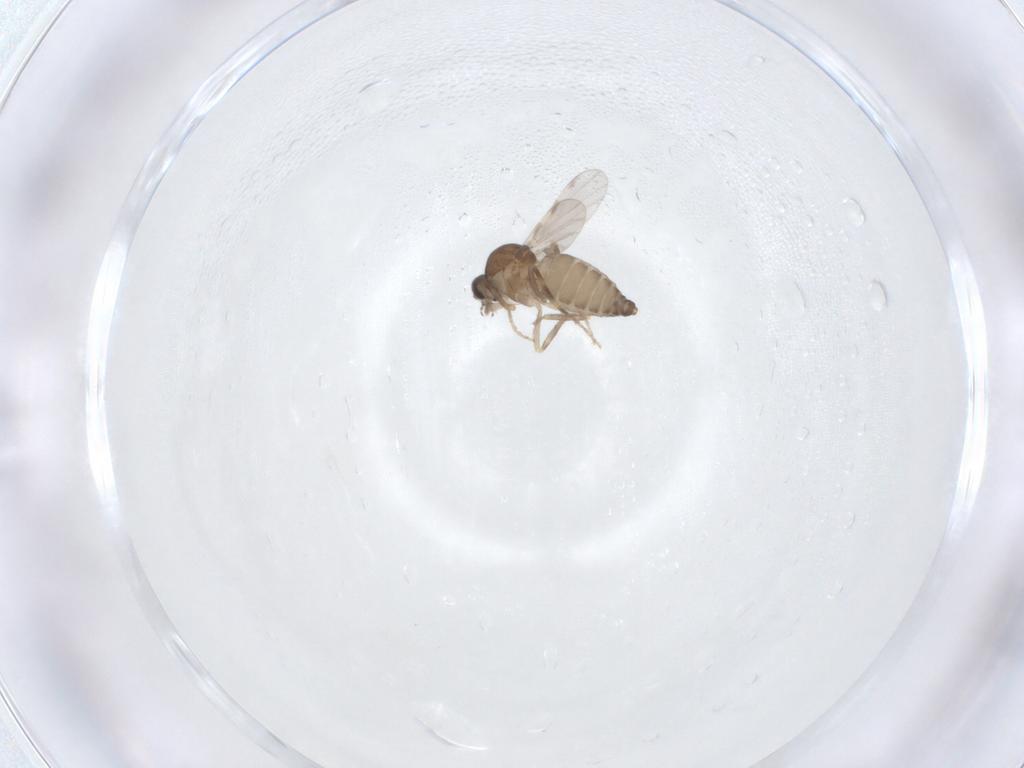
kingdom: Animalia
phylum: Arthropoda
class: Insecta
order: Diptera
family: Ceratopogonidae
